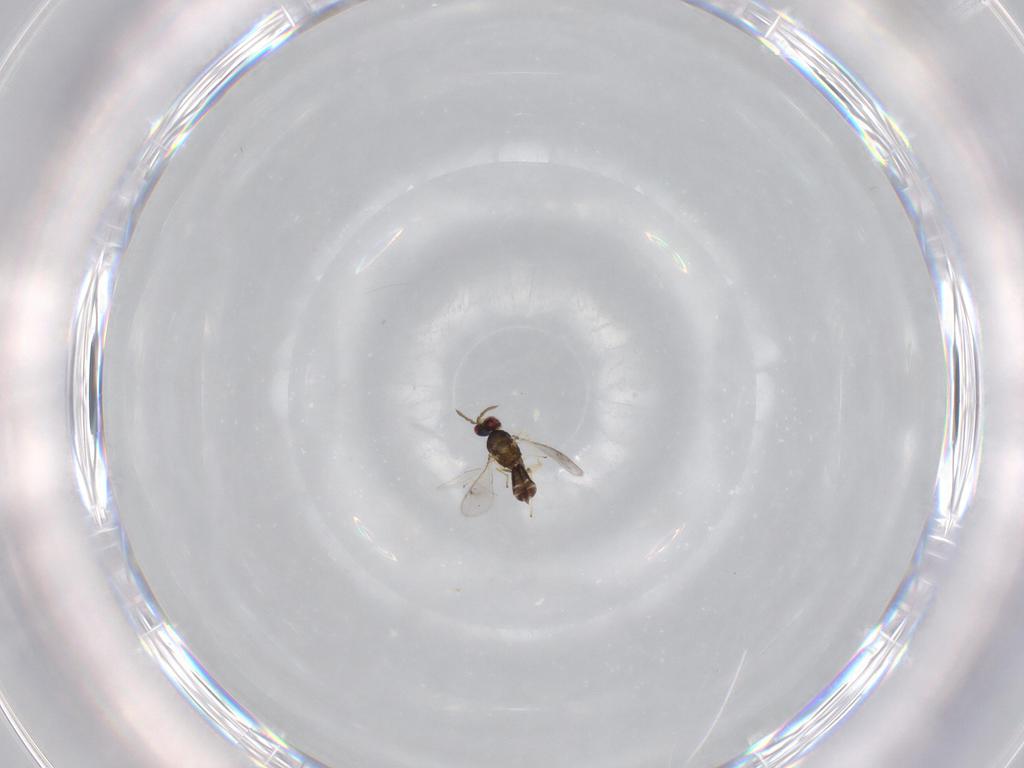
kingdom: Animalia
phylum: Arthropoda
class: Insecta
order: Hymenoptera
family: Eulophidae
